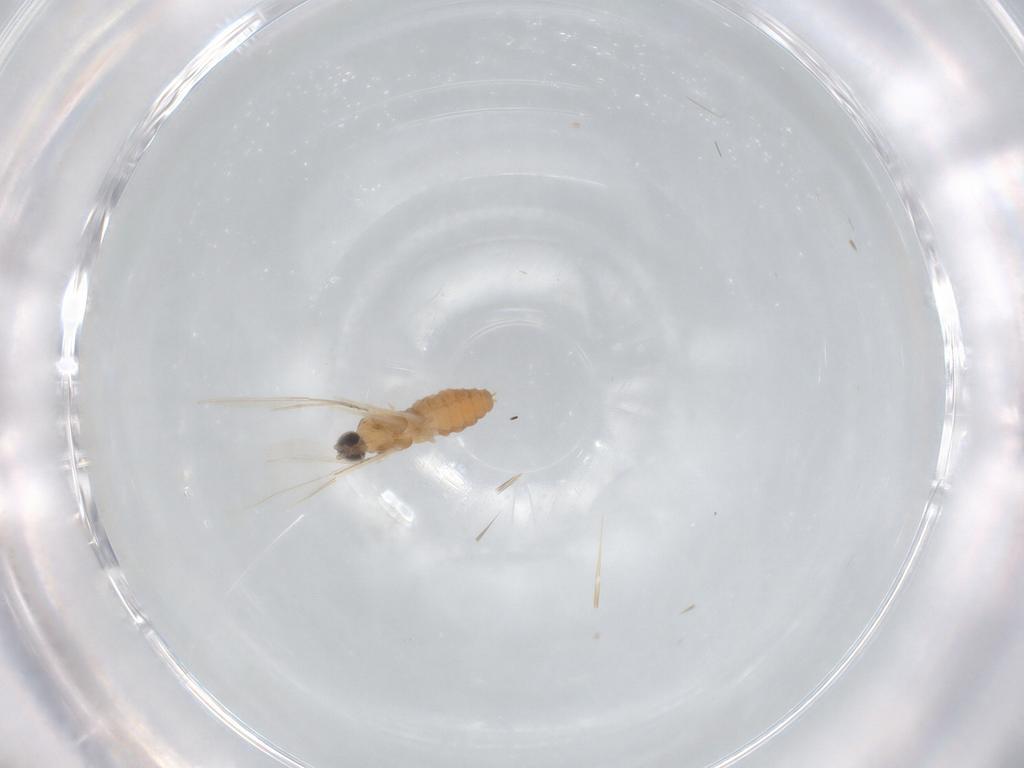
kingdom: Animalia
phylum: Arthropoda
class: Insecta
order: Diptera
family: Cecidomyiidae
